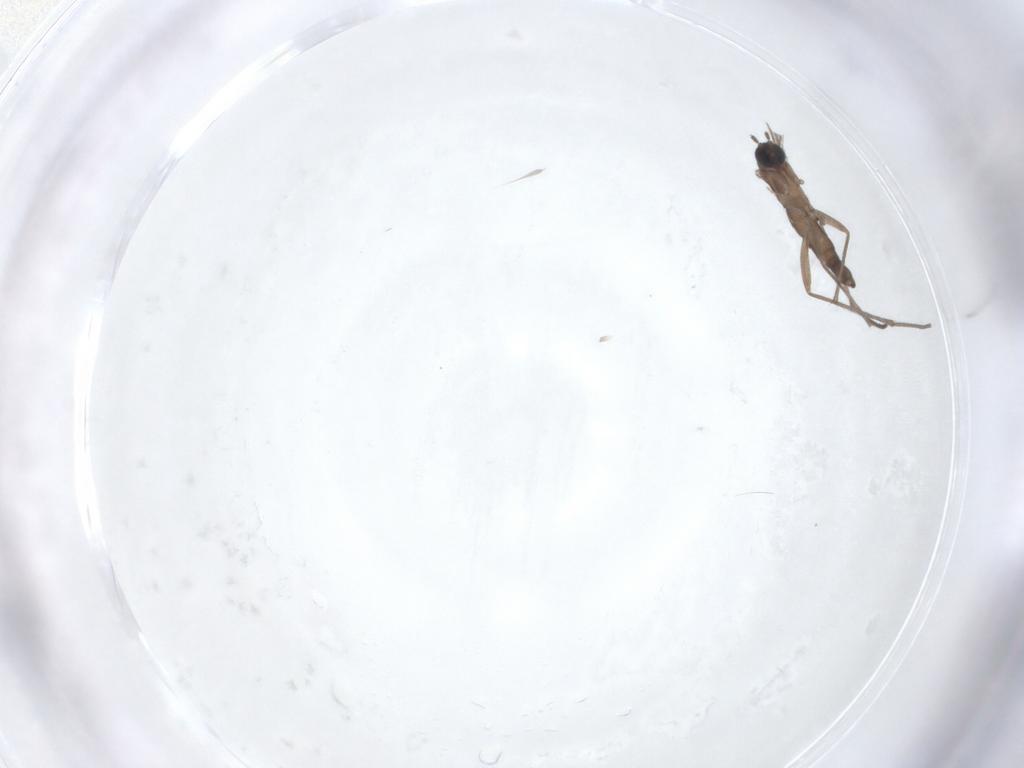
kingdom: Animalia
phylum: Arthropoda
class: Insecta
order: Diptera
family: Sciaridae
